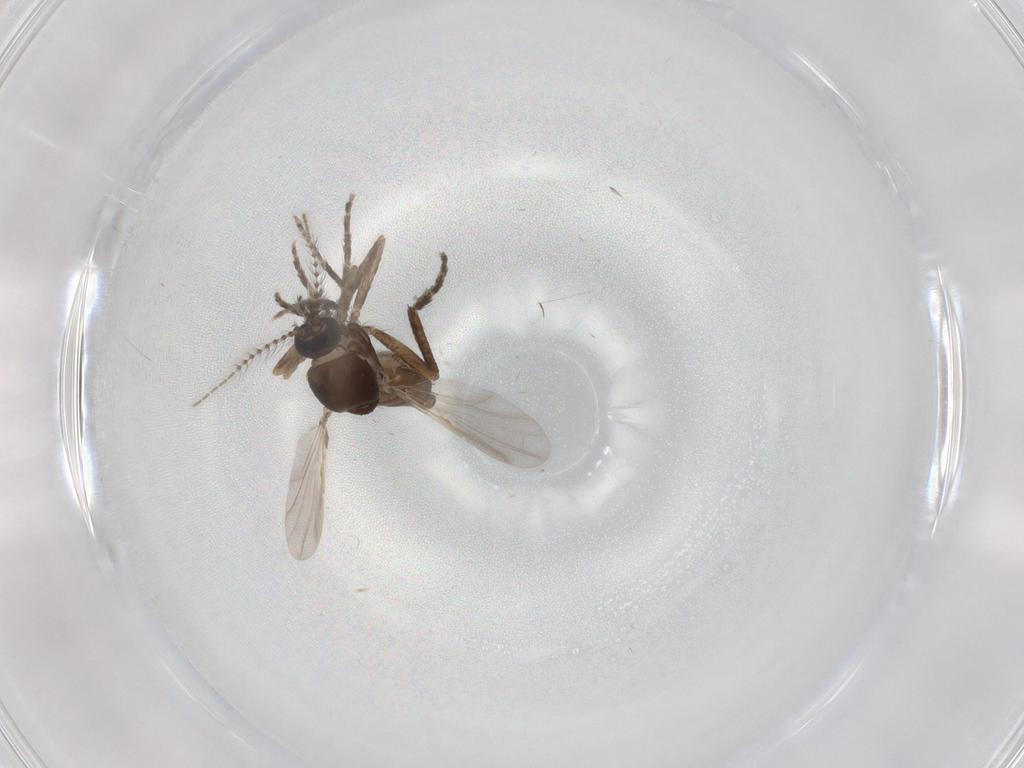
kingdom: Animalia
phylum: Arthropoda
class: Insecta
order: Diptera
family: Ceratopogonidae
